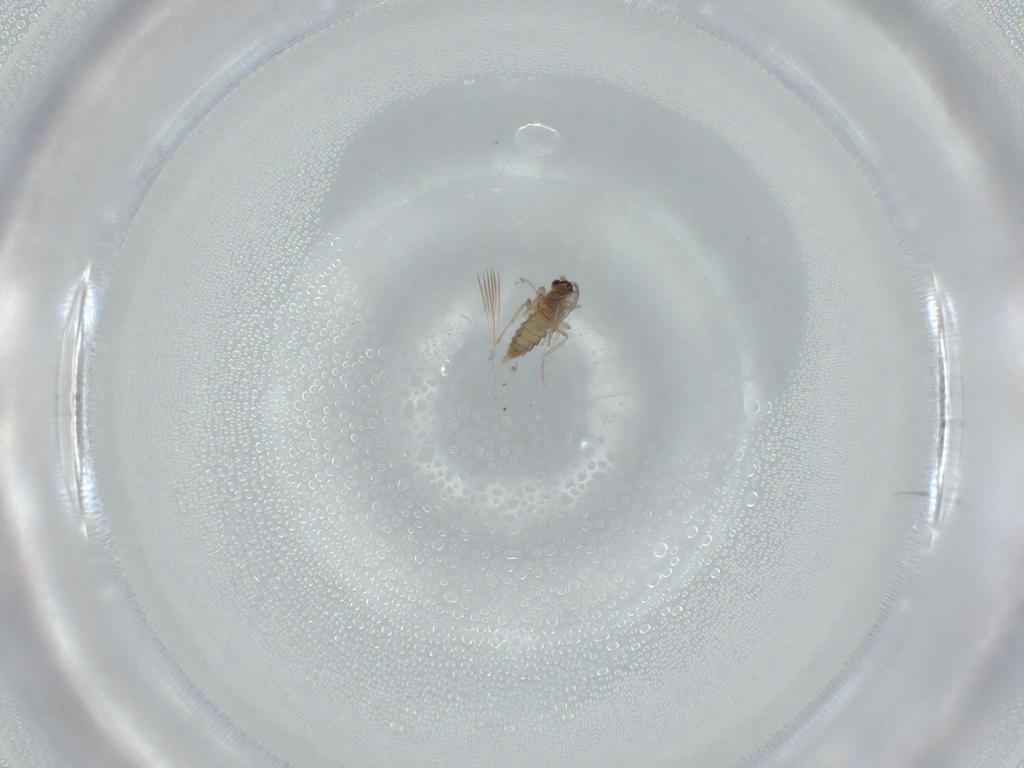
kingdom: Animalia
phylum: Arthropoda
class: Insecta
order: Diptera
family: Cecidomyiidae
